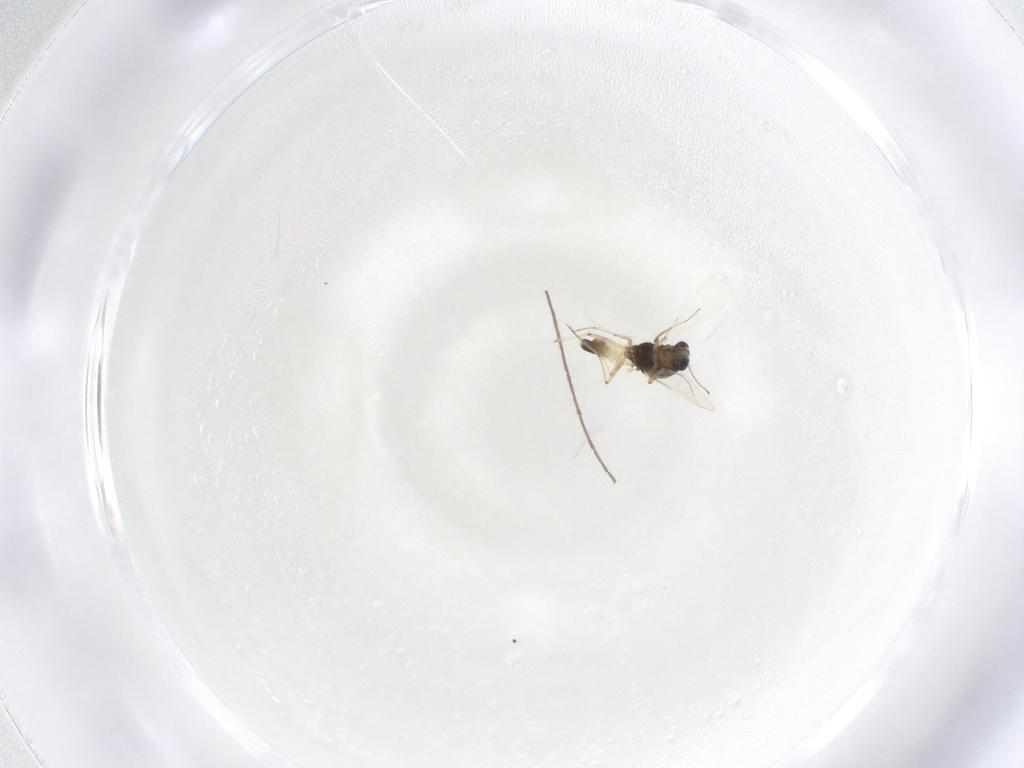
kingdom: Animalia
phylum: Arthropoda
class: Insecta
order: Diptera
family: Chironomidae
